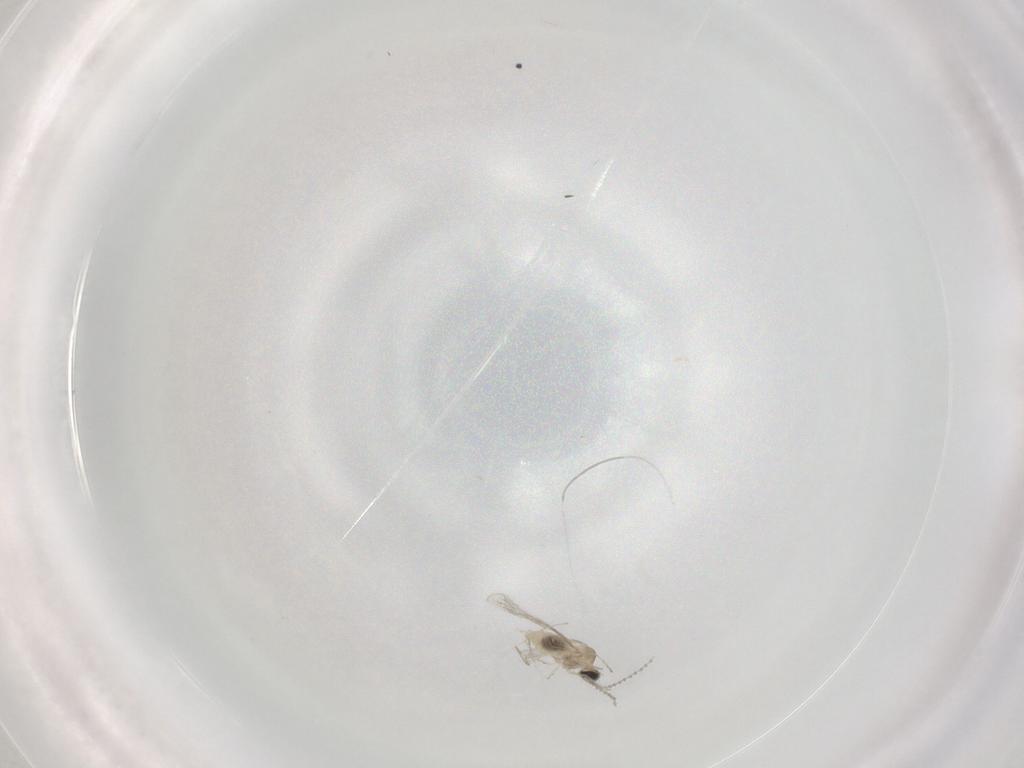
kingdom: Animalia
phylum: Arthropoda
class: Insecta
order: Diptera
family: Cecidomyiidae
